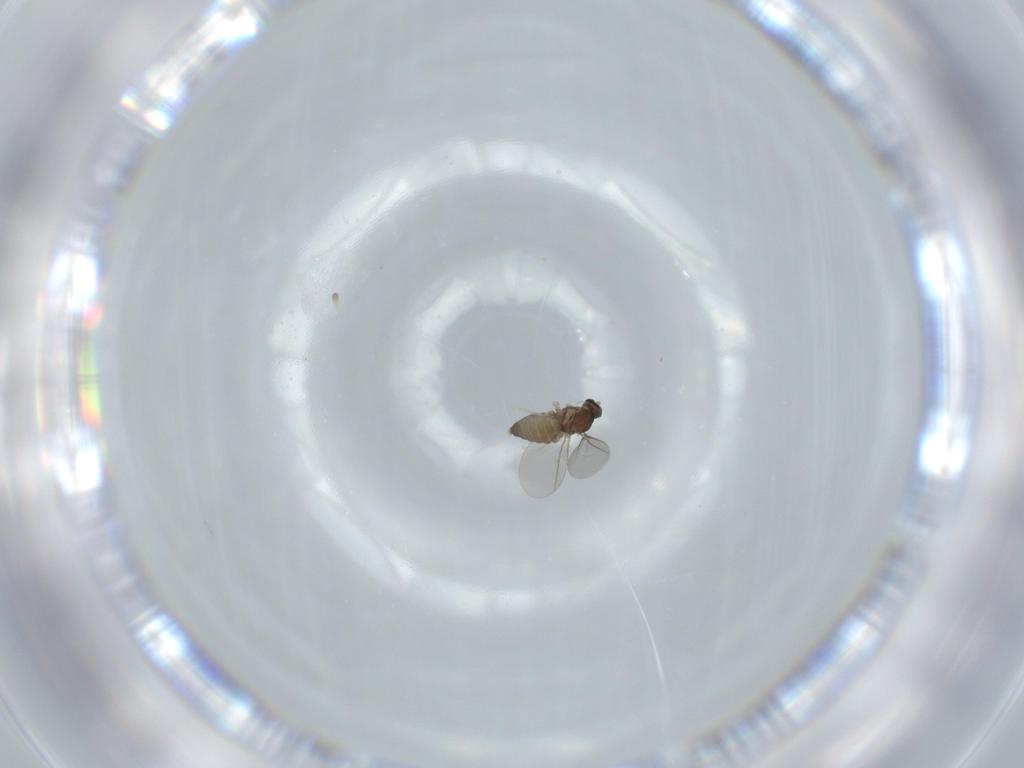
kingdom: Animalia
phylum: Arthropoda
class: Insecta
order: Diptera
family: Cecidomyiidae
